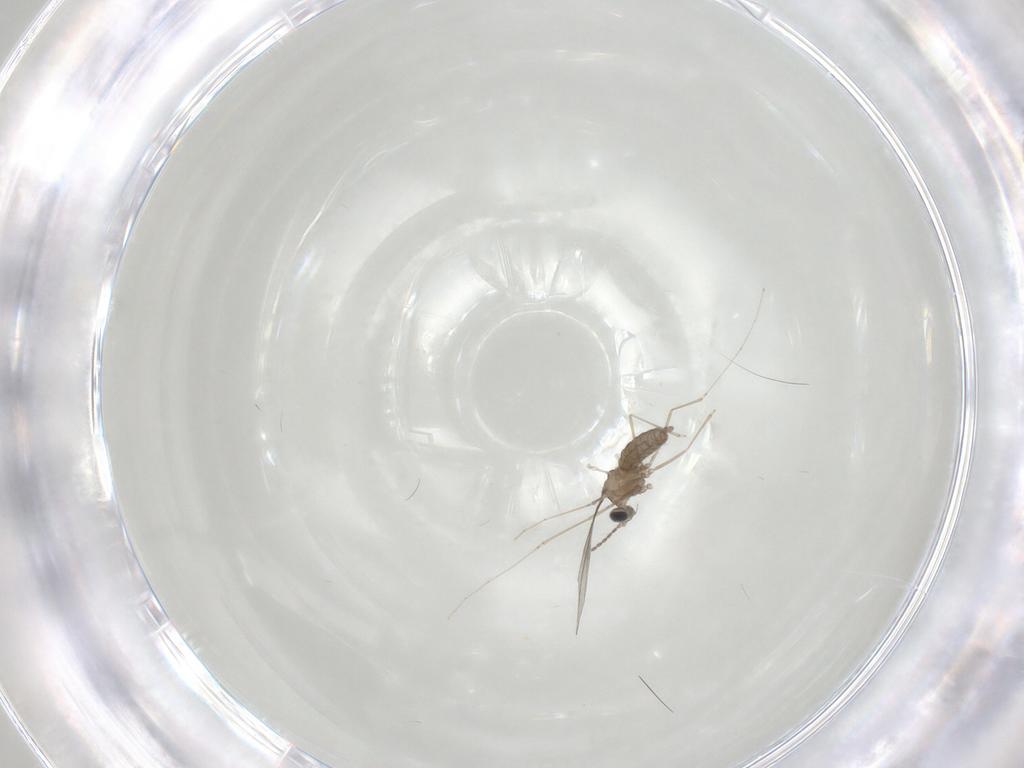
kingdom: Animalia
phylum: Arthropoda
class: Insecta
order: Diptera
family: Cecidomyiidae
